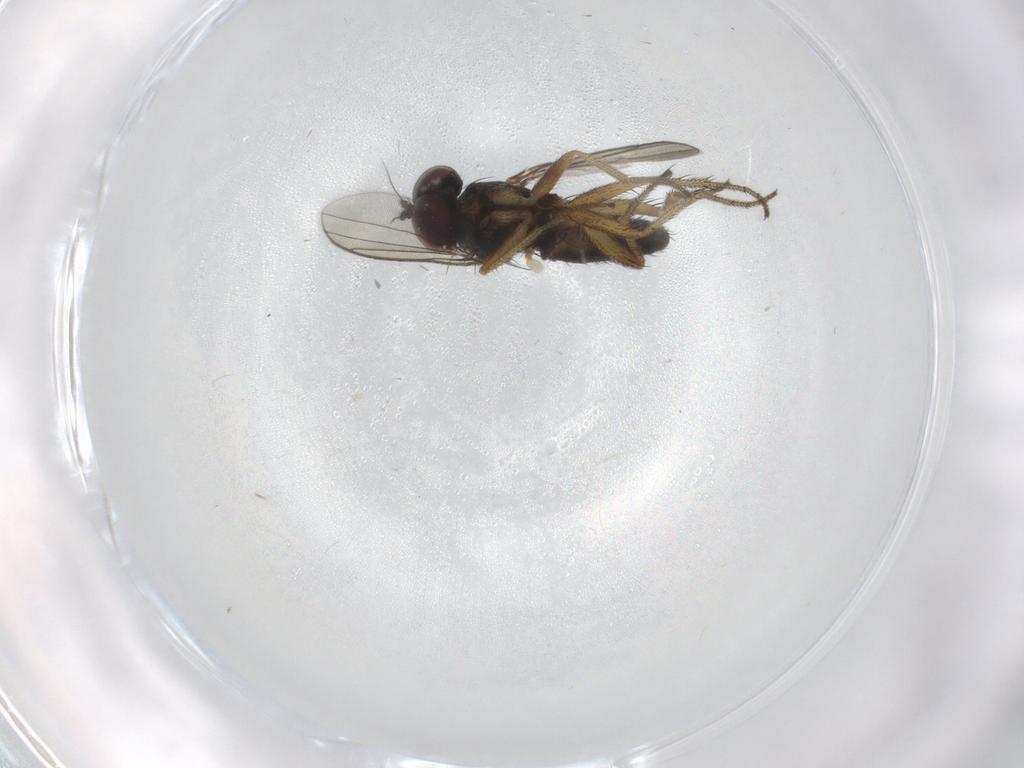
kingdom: Animalia
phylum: Arthropoda
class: Insecta
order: Diptera
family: Dolichopodidae
